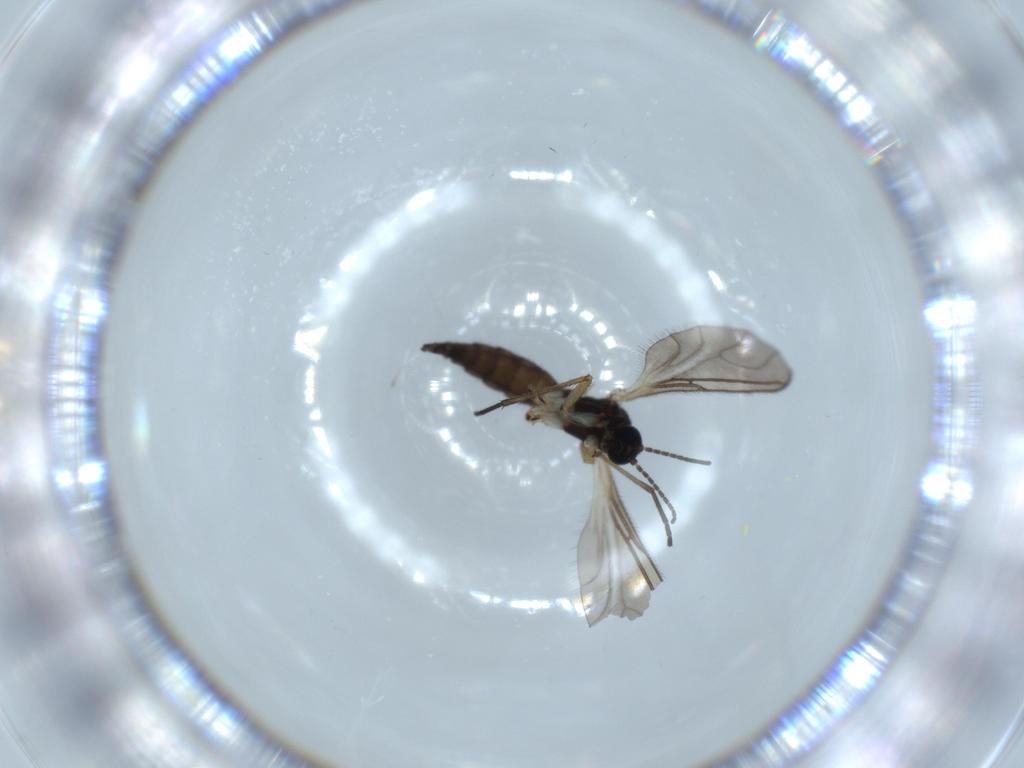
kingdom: Animalia
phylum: Arthropoda
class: Insecta
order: Diptera
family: Sciaridae
